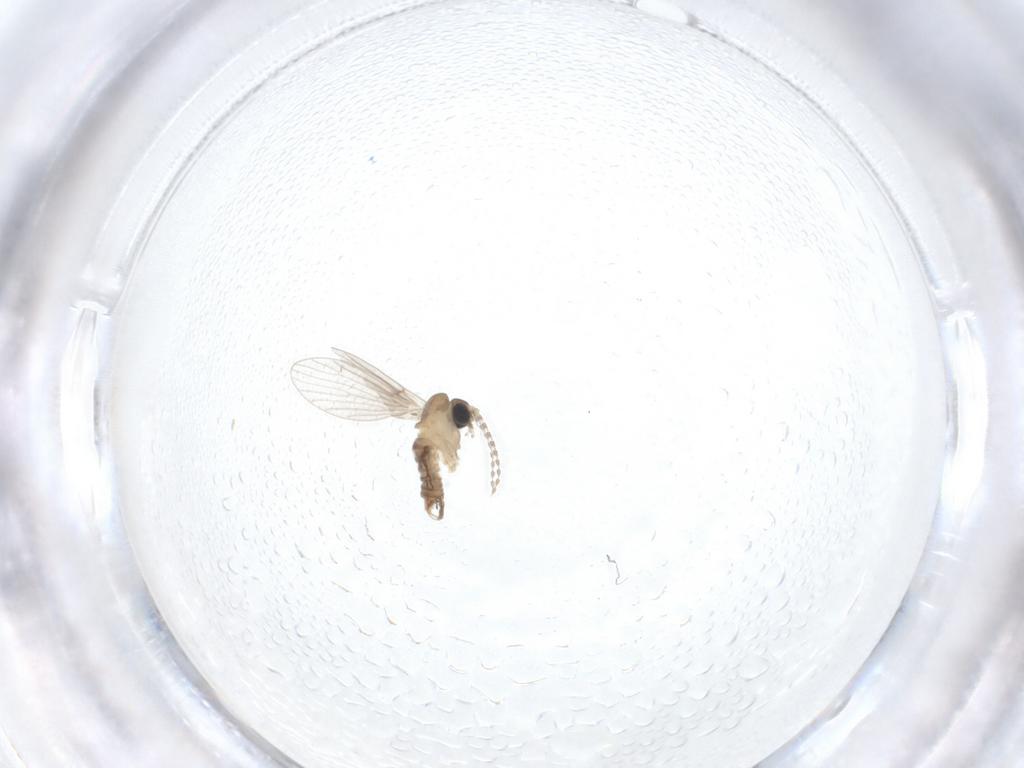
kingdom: Animalia
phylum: Arthropoda
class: Insecta
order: Diptera
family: Psychodidae
